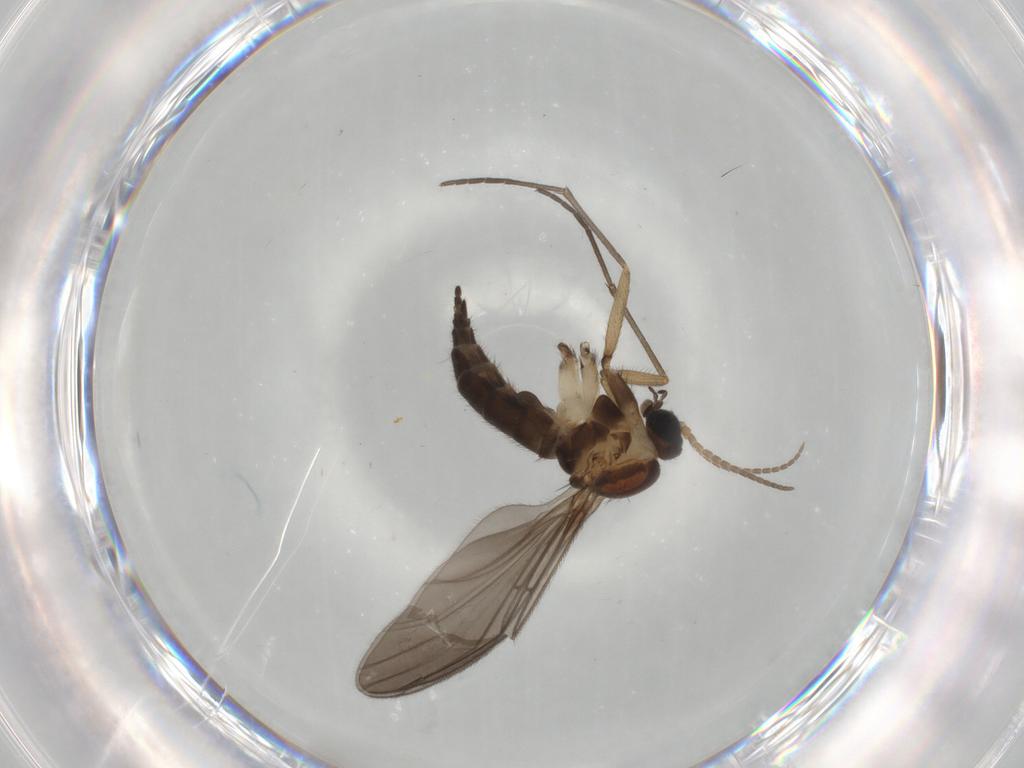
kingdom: Animalia
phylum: Arthropoda
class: Insecta
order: Diptera
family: Sciaridae
